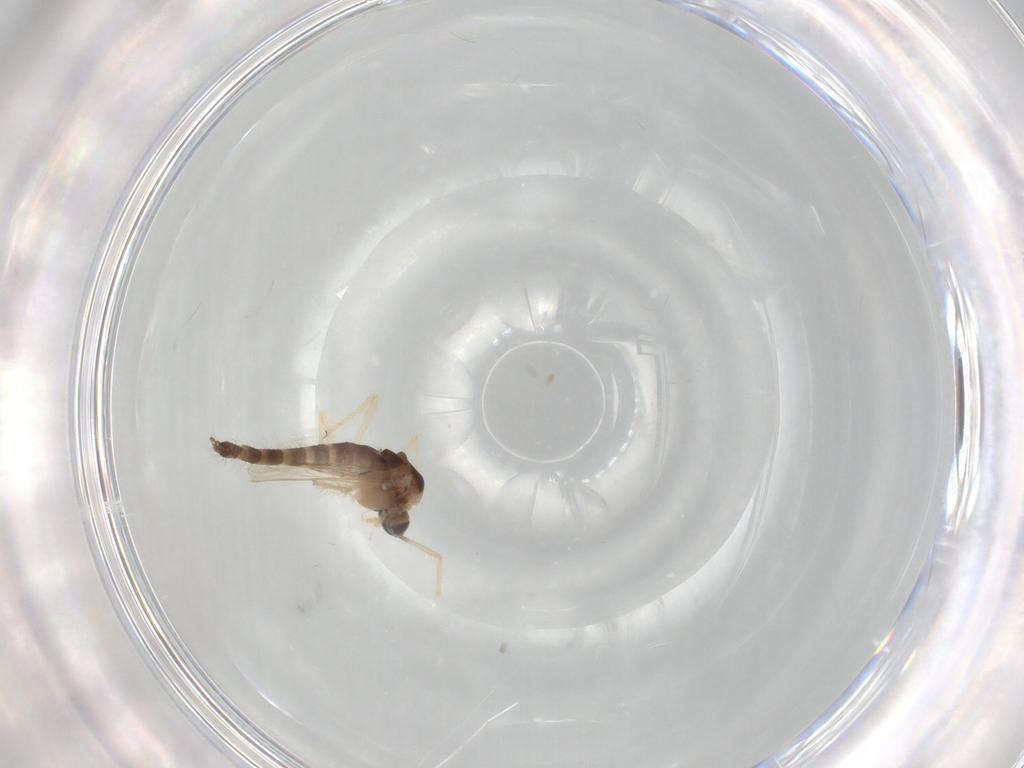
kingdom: Animalia
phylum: Arthropoda
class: Insecta
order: Diptera
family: Chironomidae
